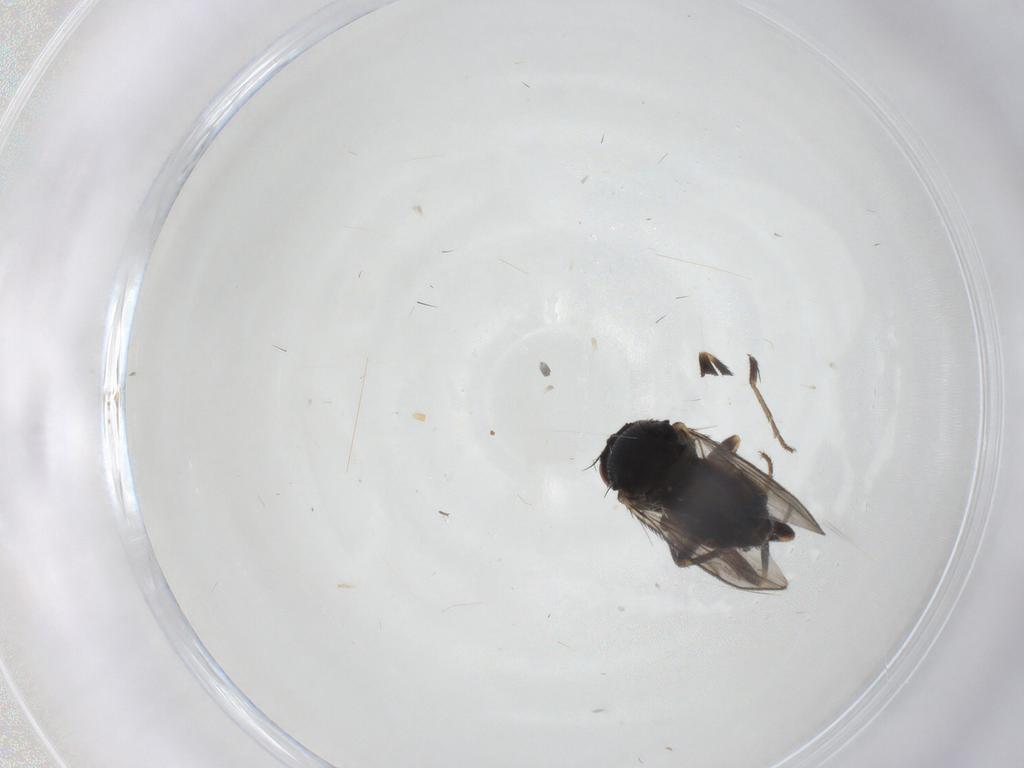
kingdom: Animalia
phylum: Arthropoda
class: Insecta
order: Diptera
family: Sphaeroceridae
